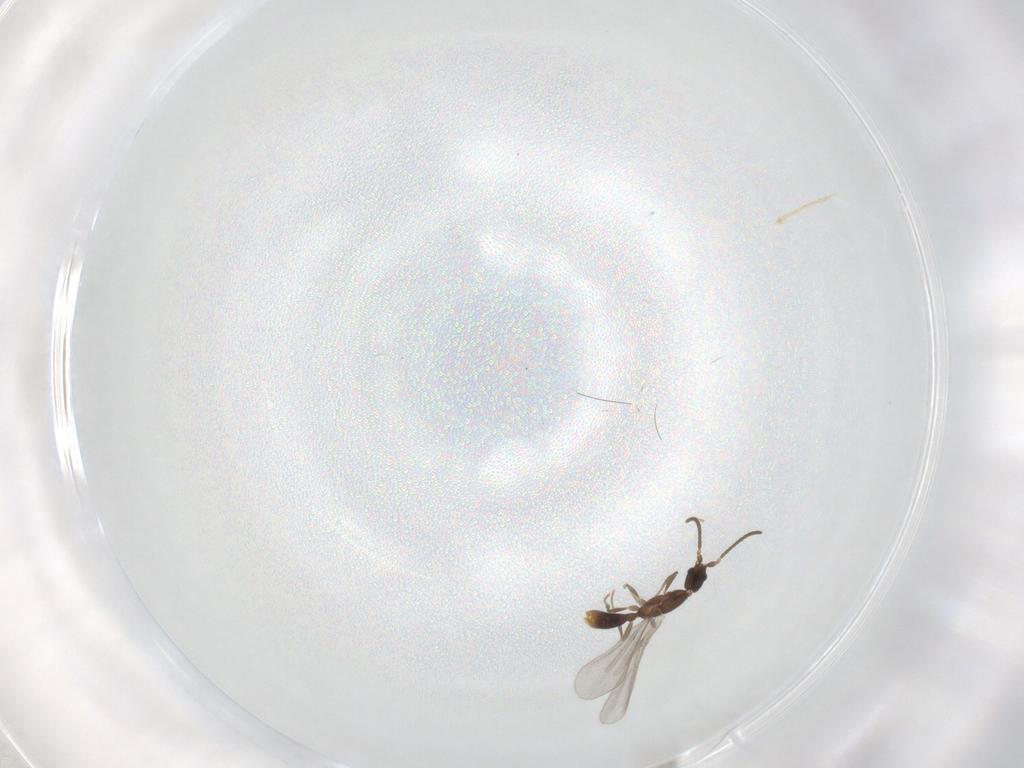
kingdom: Animalia
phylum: Arthropoda
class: Insecta
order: Hymenoptera
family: Formicidae
